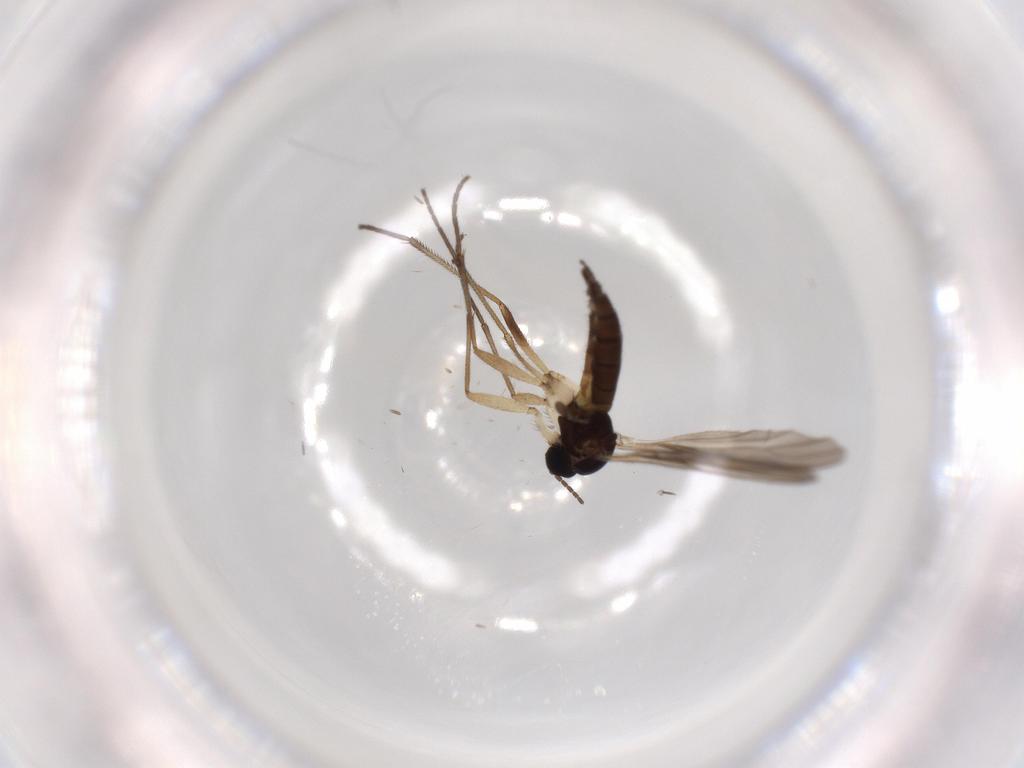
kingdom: Animalia
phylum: Arthropoda
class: Insecta
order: Diptera
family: Sciaridae
